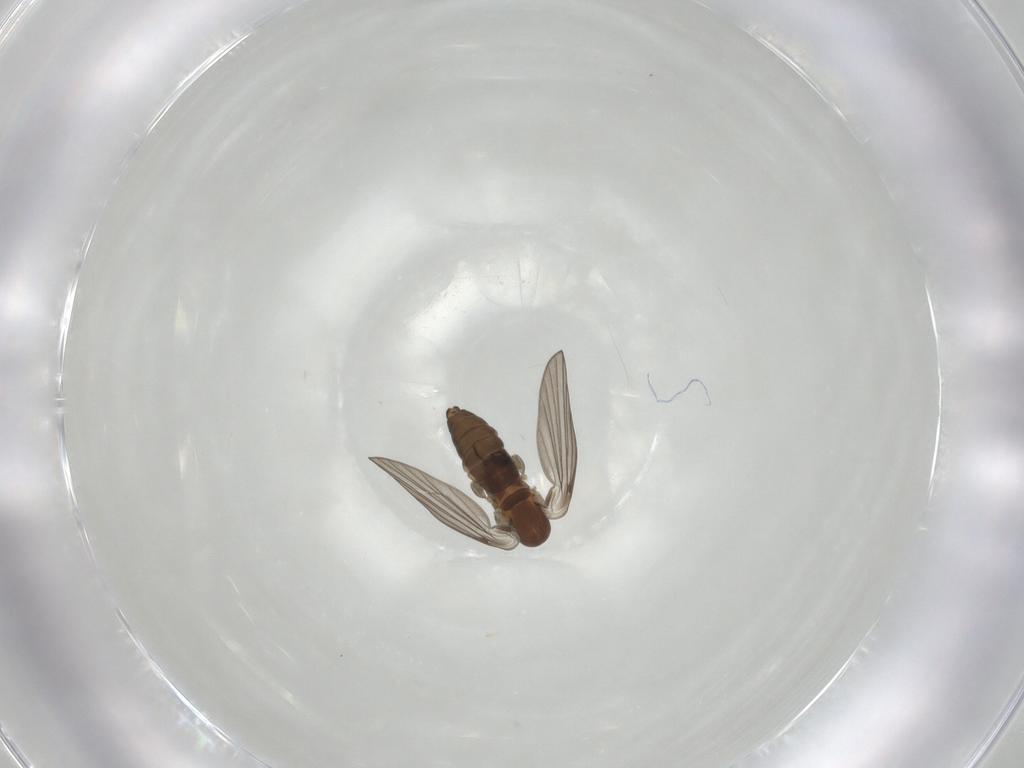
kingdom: Animalia
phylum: Arthropoda
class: Insecta
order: Diptera
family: Psychodidae
